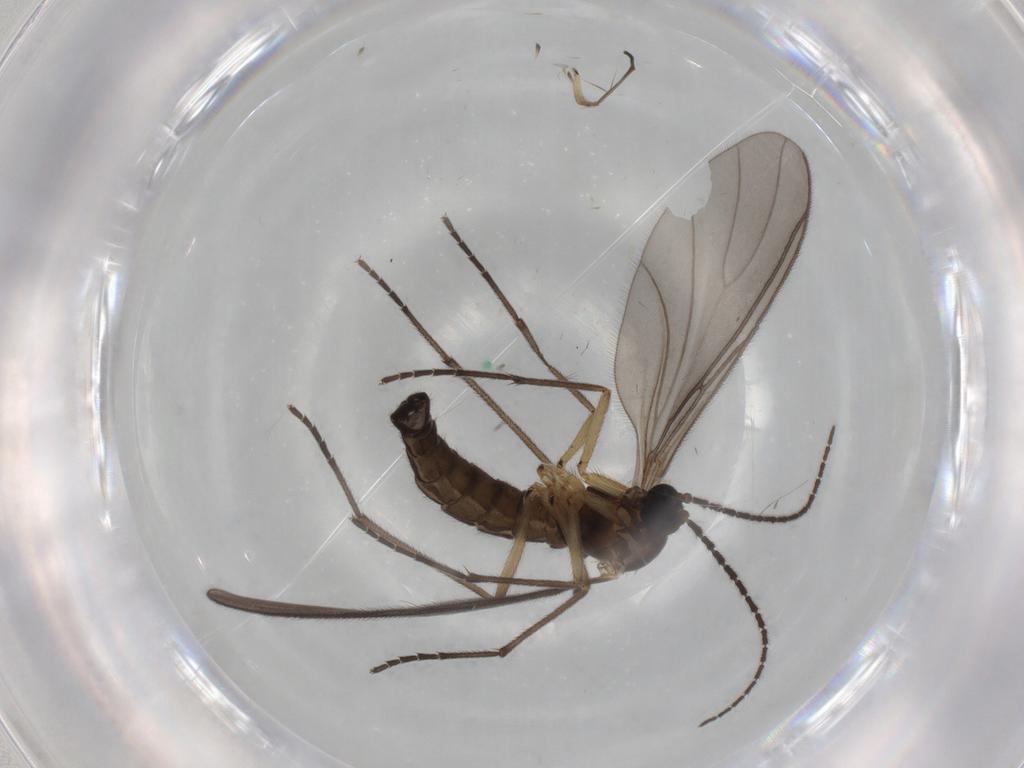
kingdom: Animalia
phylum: Arthropoda
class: Insecta
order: Diptera
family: Sciaridae
